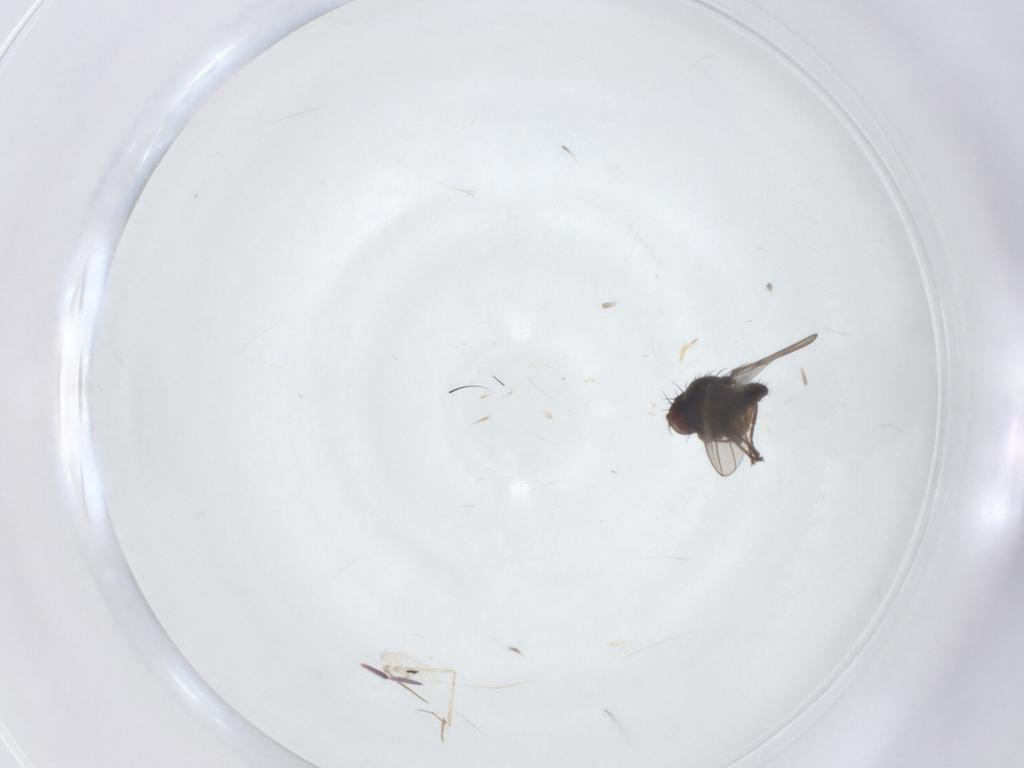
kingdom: Animalia
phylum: Arthropoda
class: Insecta
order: Diptera
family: Ephydridae
